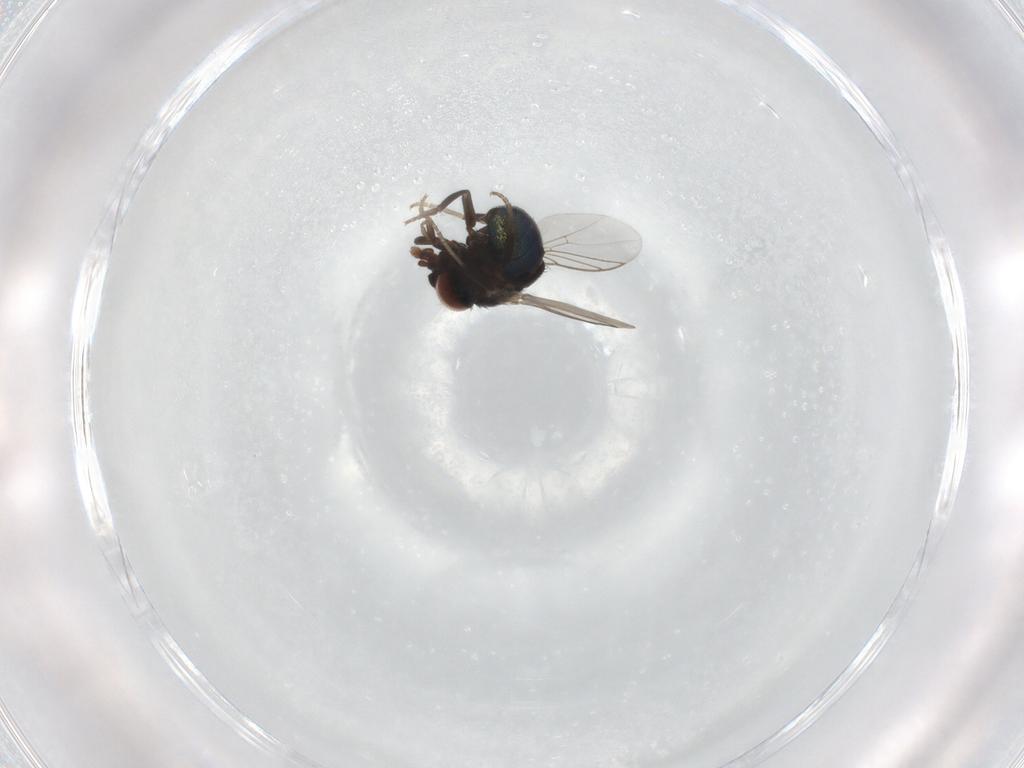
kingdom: Animalia
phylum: Arthropoda
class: Insecta
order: Diptera
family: Cryptochetidae
